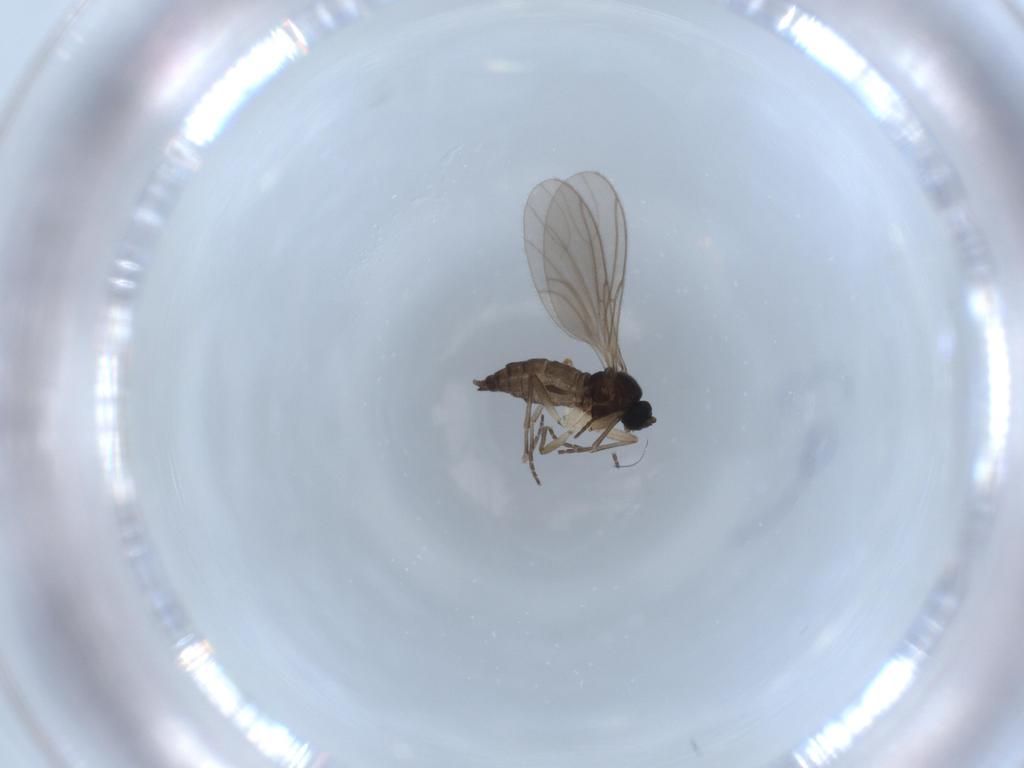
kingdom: Animalia
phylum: Arthropoda
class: Insecta
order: Diptera
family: Sciaridae
